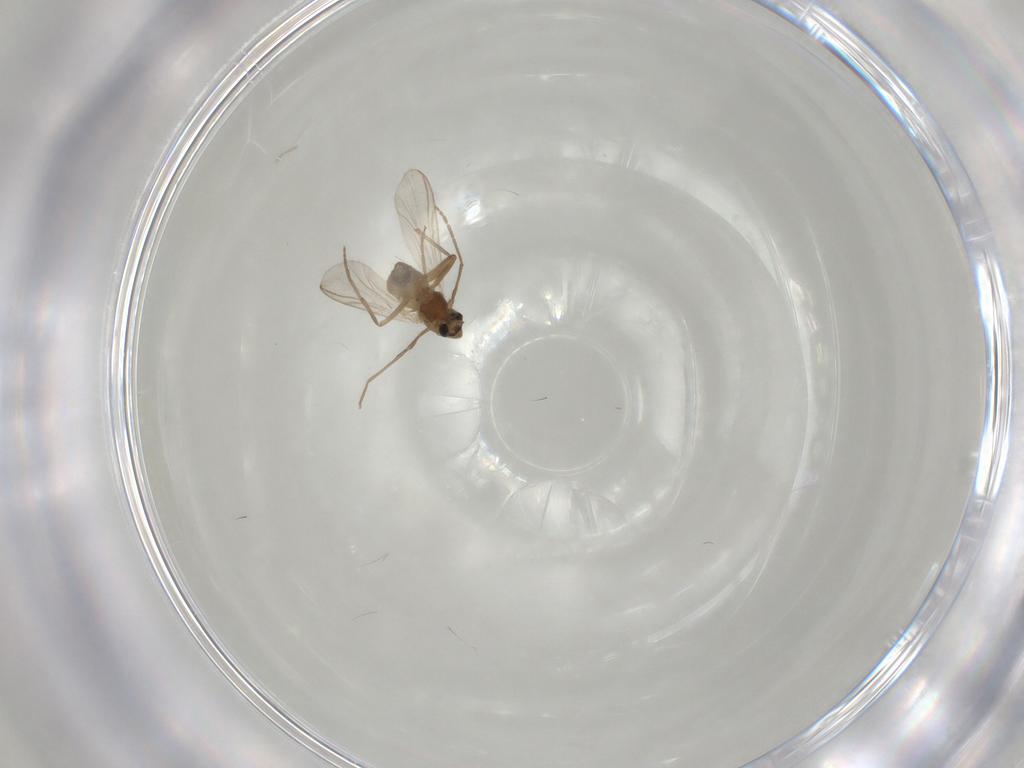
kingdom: Animalia
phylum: Arthropoda
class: Insecta
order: Diptera
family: Chironomidae
